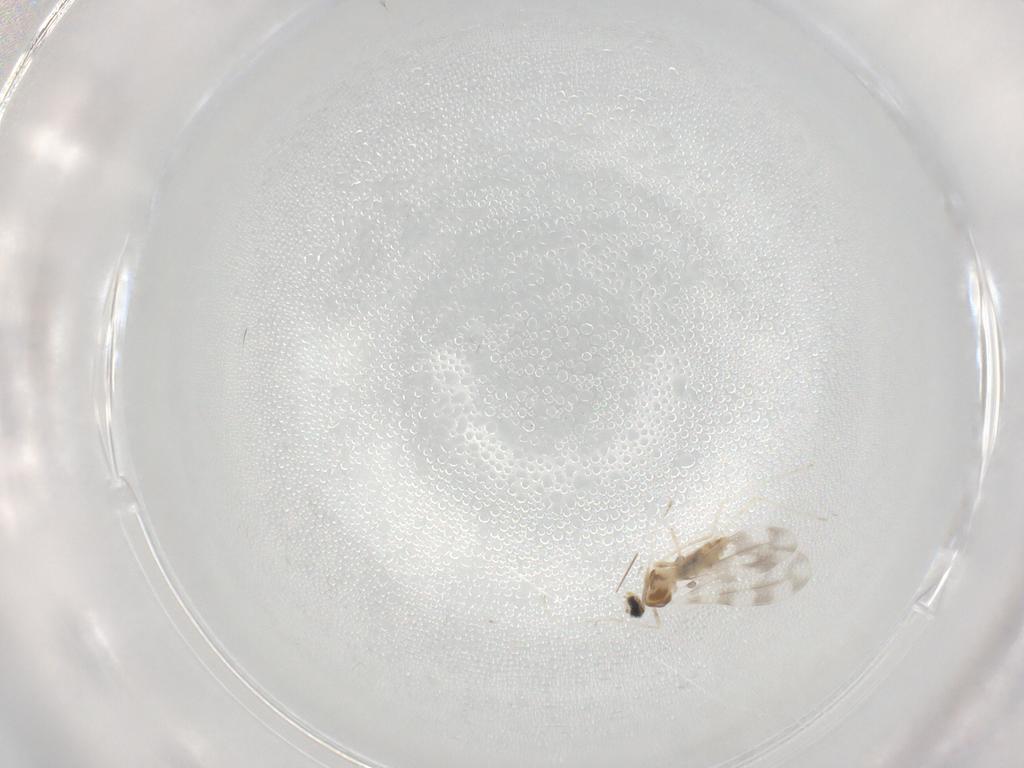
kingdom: Animalia
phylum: Arthropoda
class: Insecta
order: Diptera
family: Cecidomyiidae
